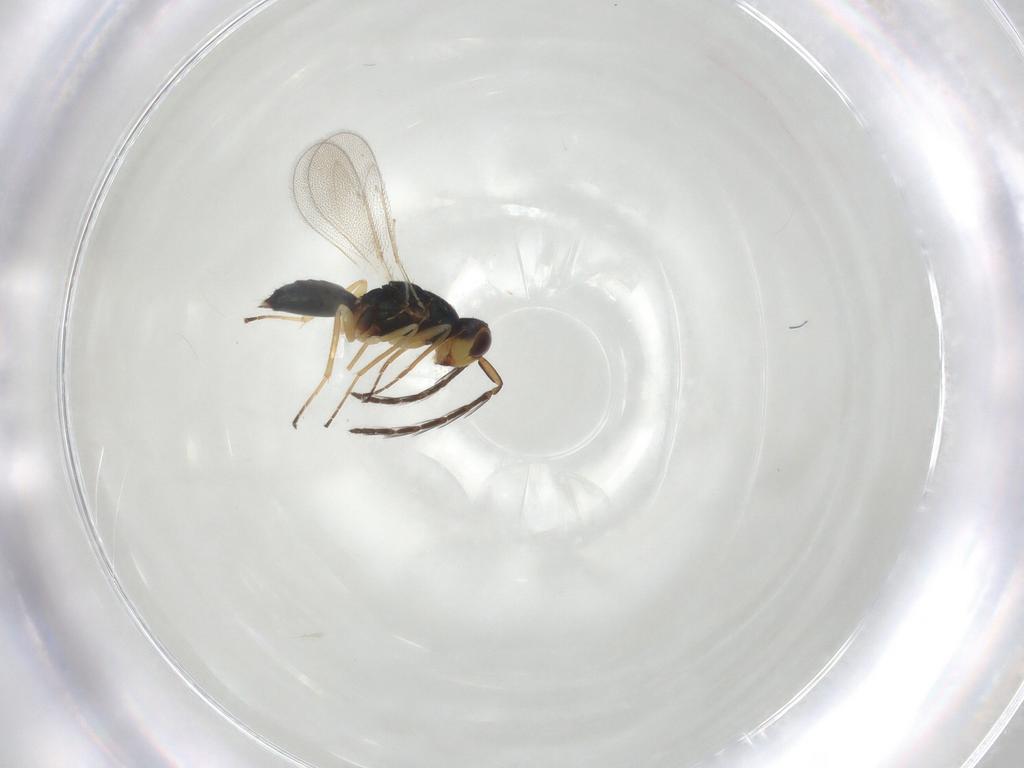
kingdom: Animalia
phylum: Arthropoda
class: Insecta
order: Hymenoptera
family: Eulophidae
